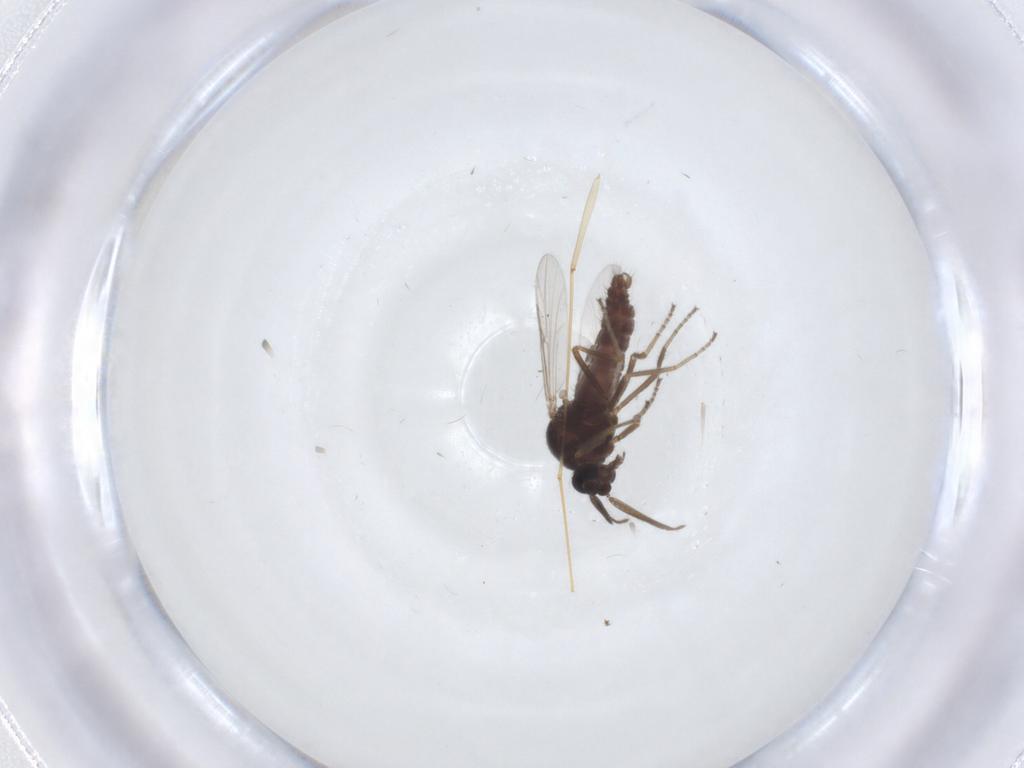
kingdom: Animalia
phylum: Arthropoda
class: Insecta
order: Diptera
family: Ceratopogonidae
